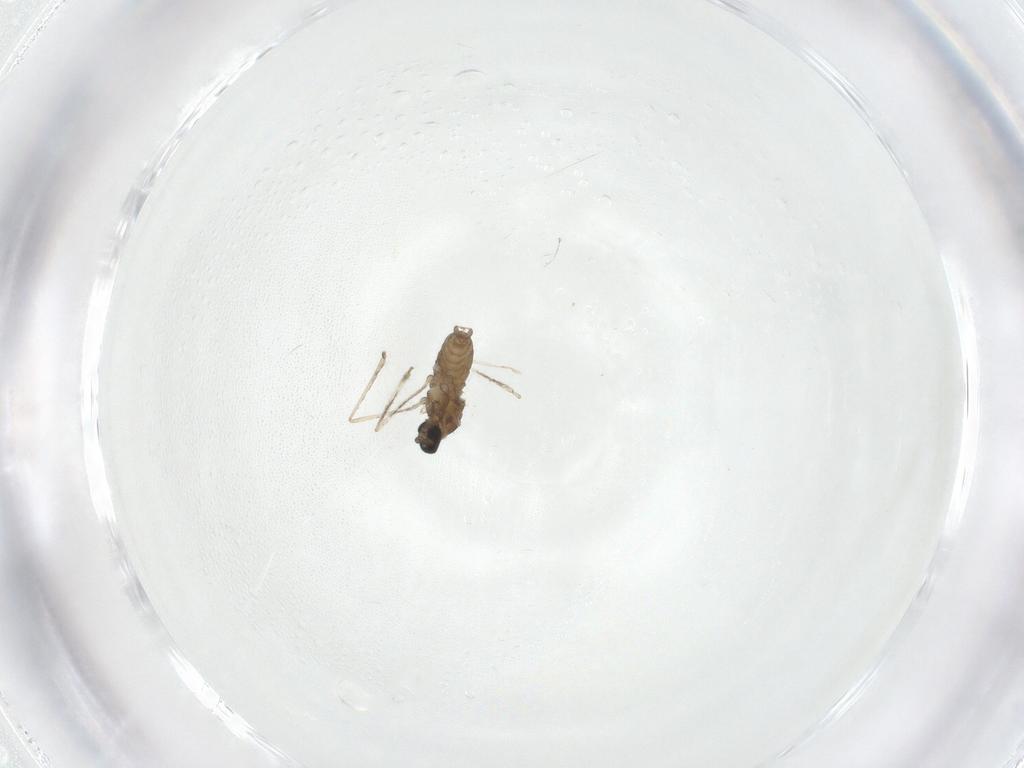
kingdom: Animalia
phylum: Arthropoda
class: Insecta
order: Diptera
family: Cecidomyiidae
